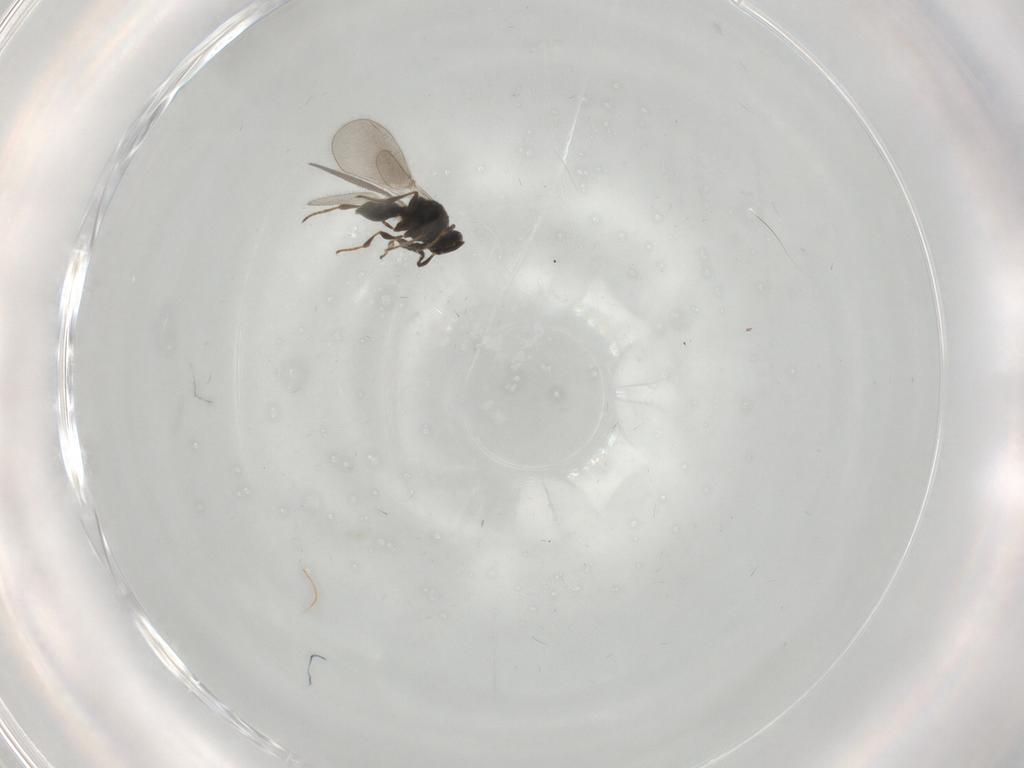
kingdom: Animalia
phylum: Arthropoda
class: Insecta
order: Hymenoptera
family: Platygastridae
